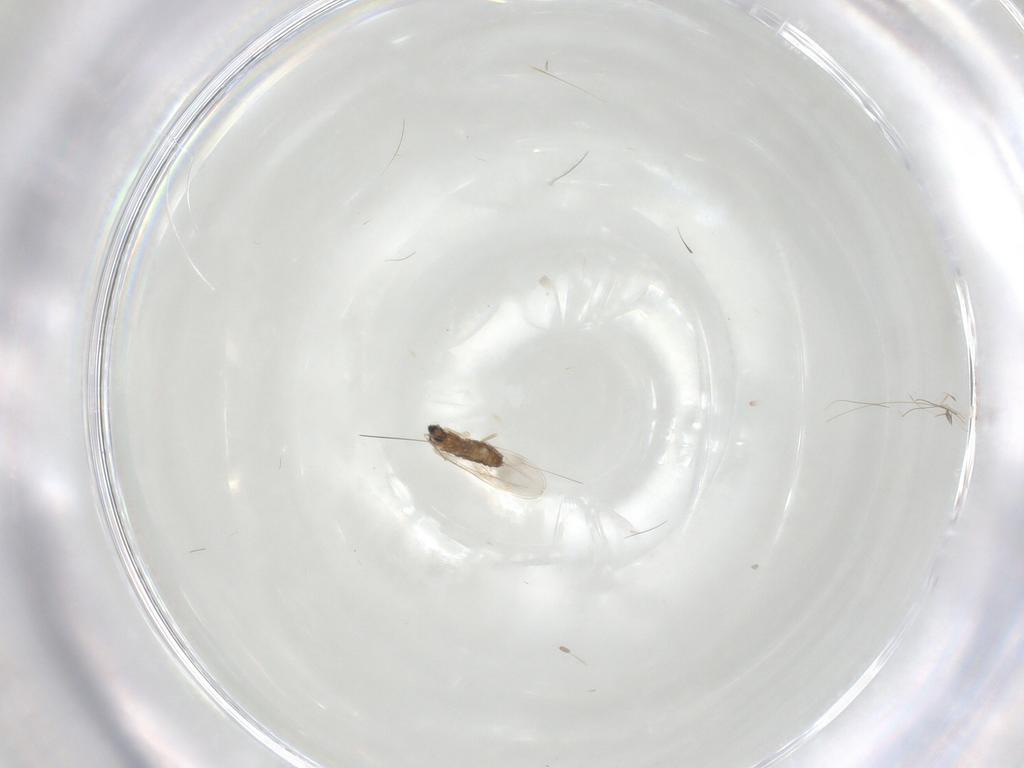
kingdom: Animalia
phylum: Arthropoda
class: Insecta
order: Diptera
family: Cecidomyiidae
